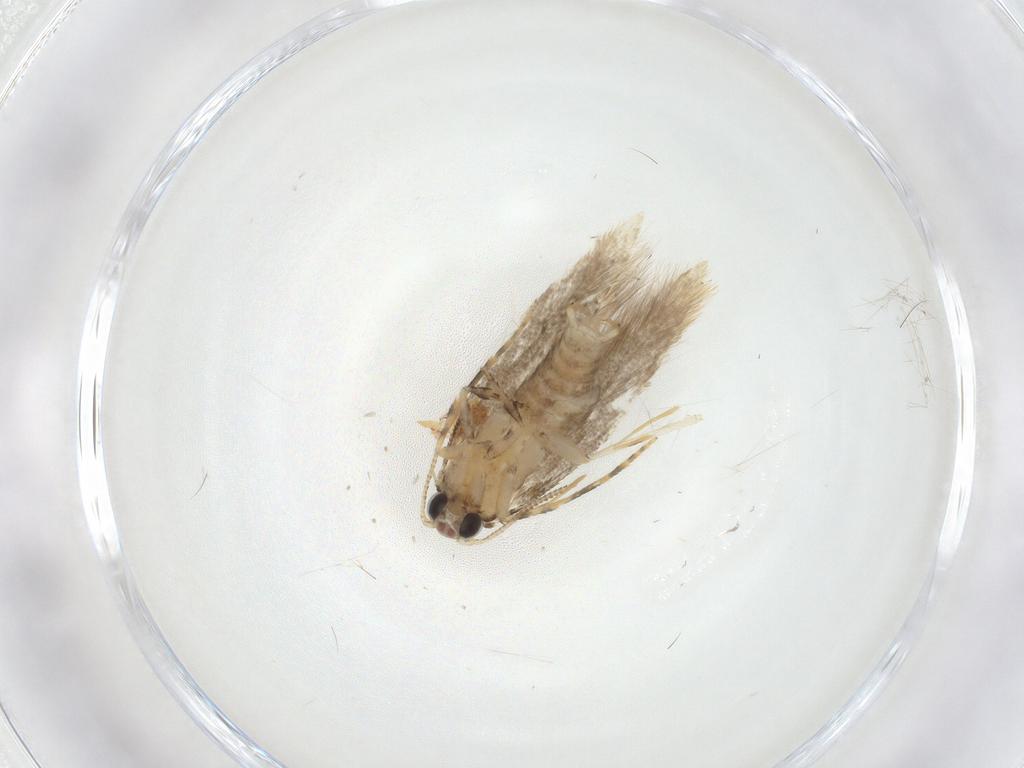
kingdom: Animalia
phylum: Arthropoda
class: Insecta
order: Lepidoptera
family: Tineidae
